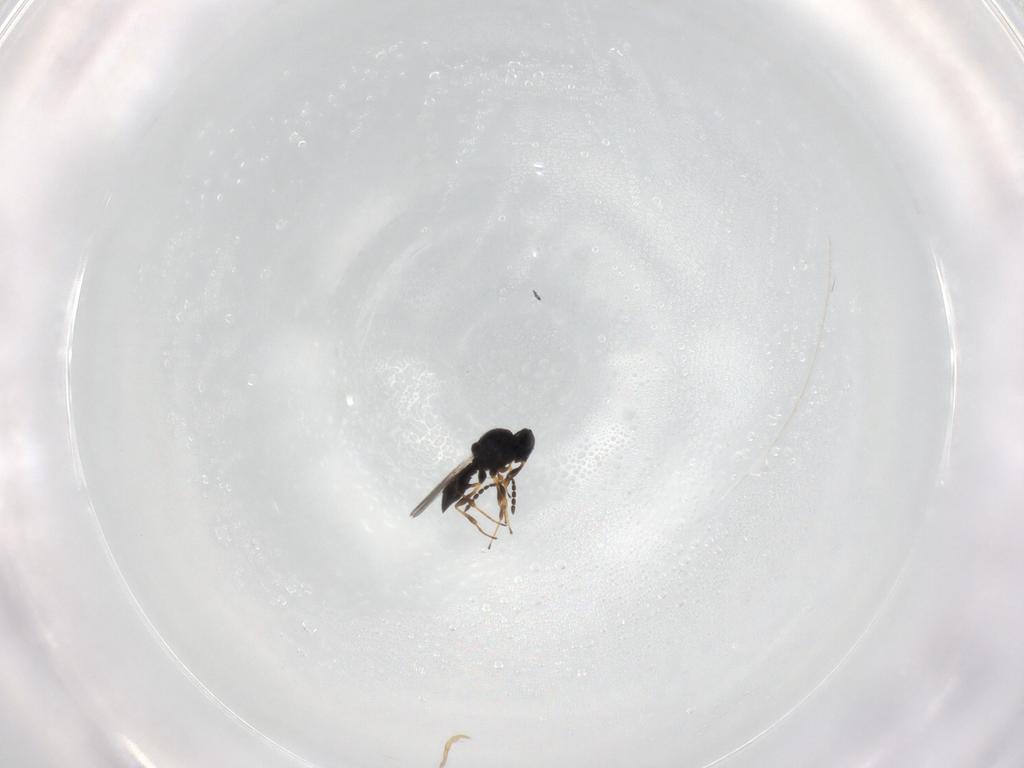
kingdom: Animalia
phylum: Arthropoda
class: Insecta
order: Hymenoptera
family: Platygastridae
